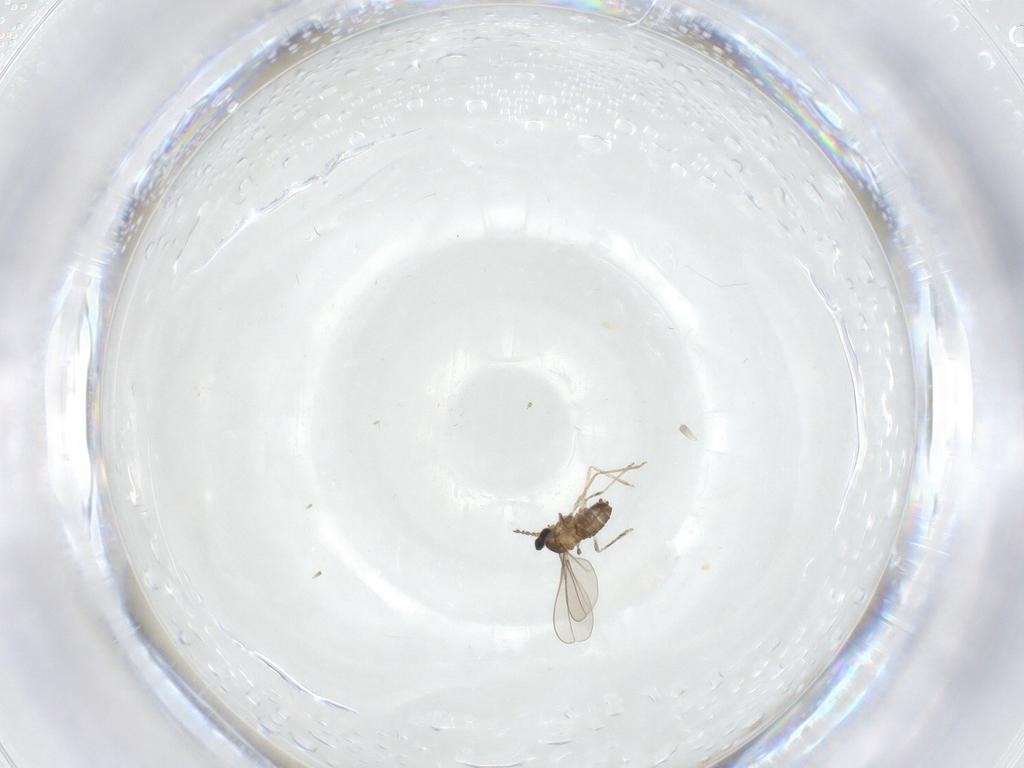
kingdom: Animalia
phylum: Arthropoda
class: Insecta
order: Diptera
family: Cecidomyiidae
